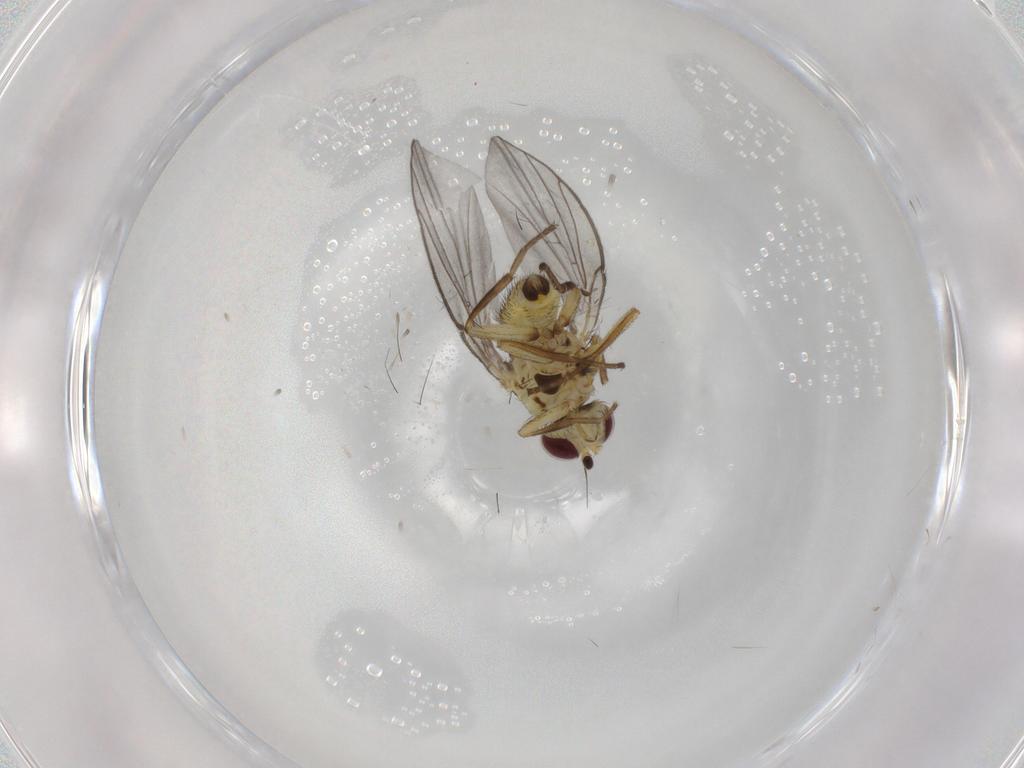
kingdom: Animalia
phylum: Arthropoda
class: Insecta
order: Diptera
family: Agromyzidae
